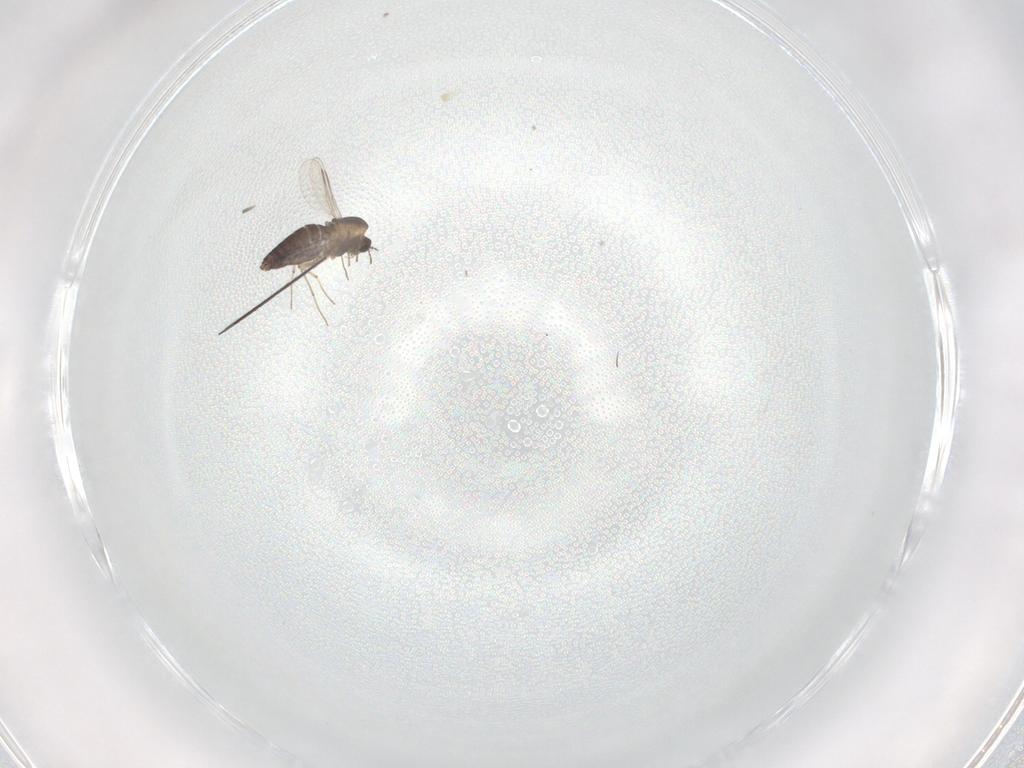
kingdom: Animalia
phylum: Arthropoda
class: Insecta
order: Diptera
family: Chironomidae
